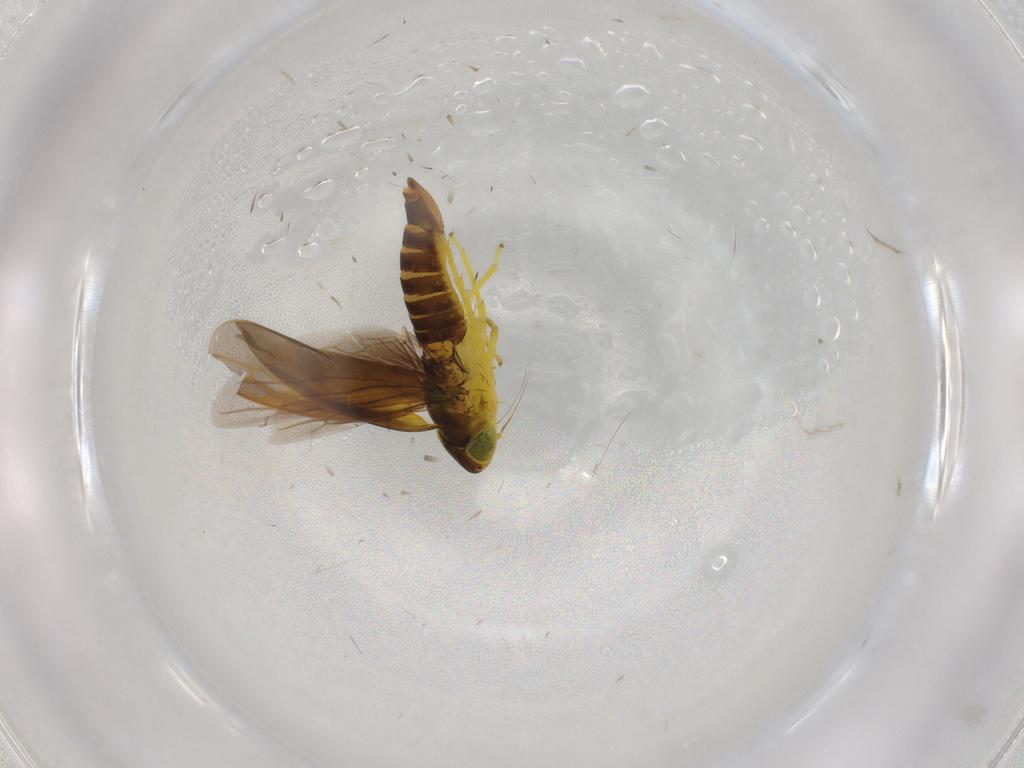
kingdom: Animalia
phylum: Arthropoda
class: Insecta
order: Hemiptera
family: Cicadellidae
